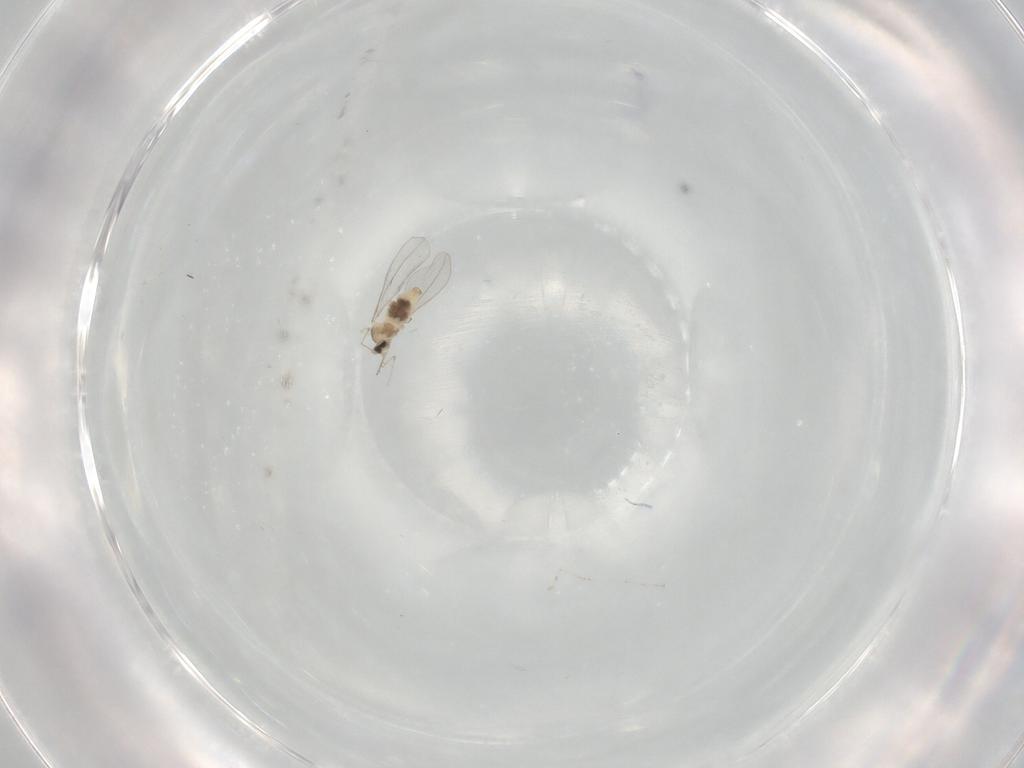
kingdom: Animalia
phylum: Arthropoda
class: Insecta
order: Diptera
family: Cecidomyiidae
